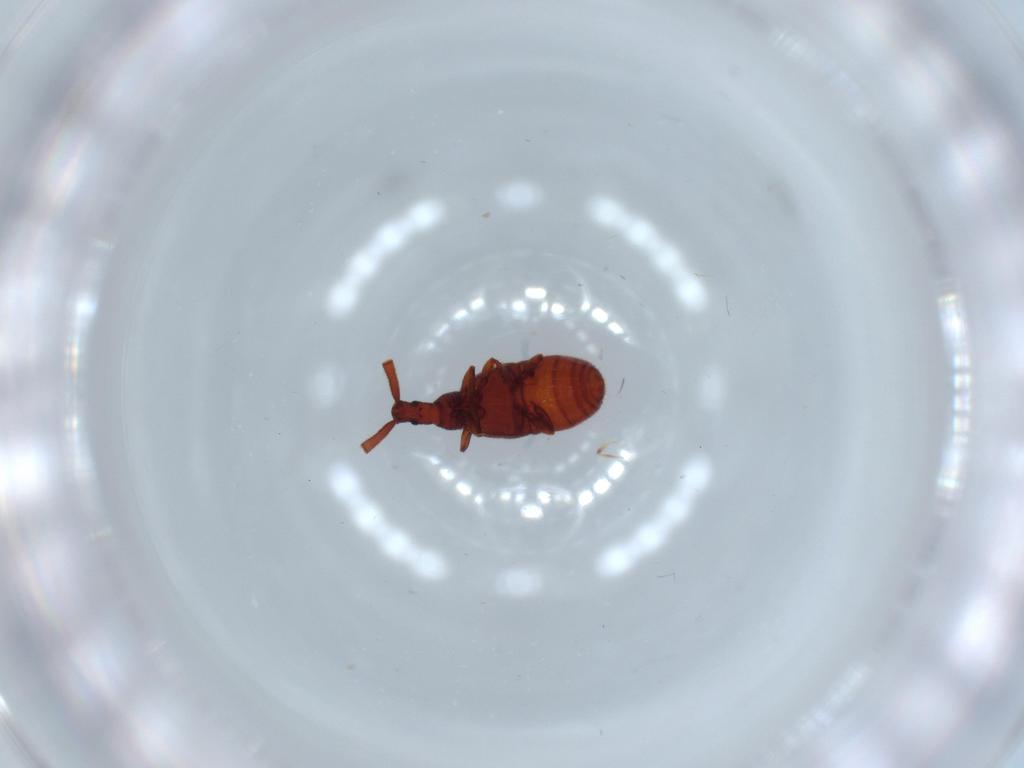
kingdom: Animalia
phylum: Arthropoda
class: Insecta
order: Coleoptera
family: Staphylinidae
